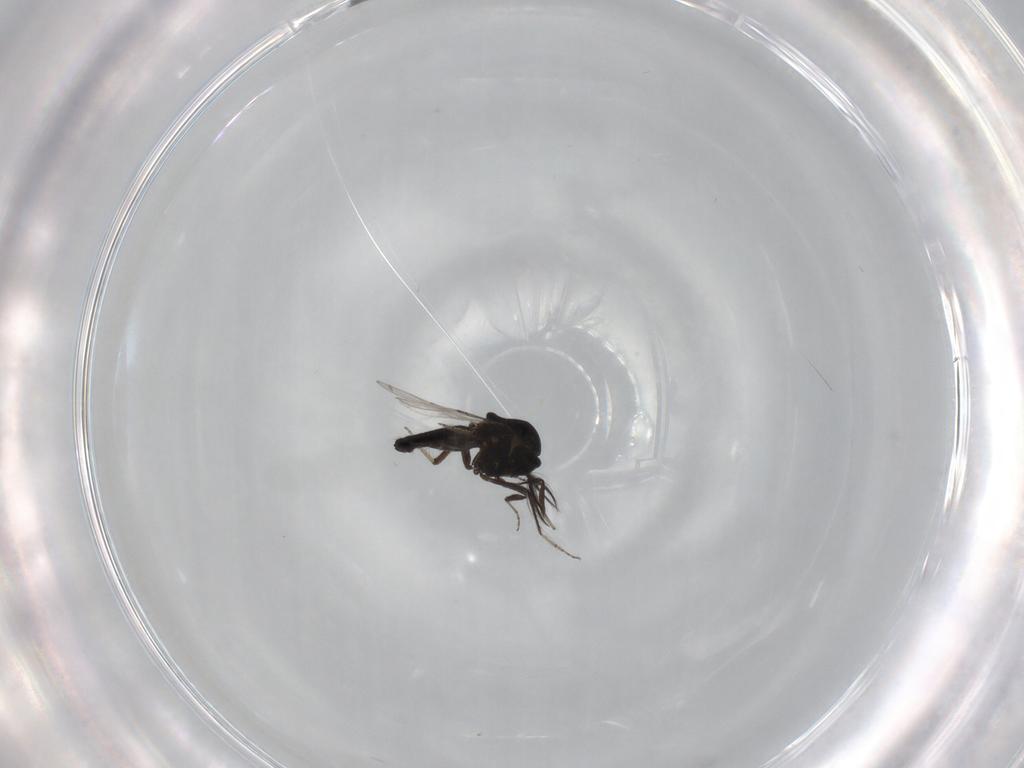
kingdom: Animalia
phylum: Arthropoda
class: Insecta
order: Diptera
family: Ceratopogonidae
